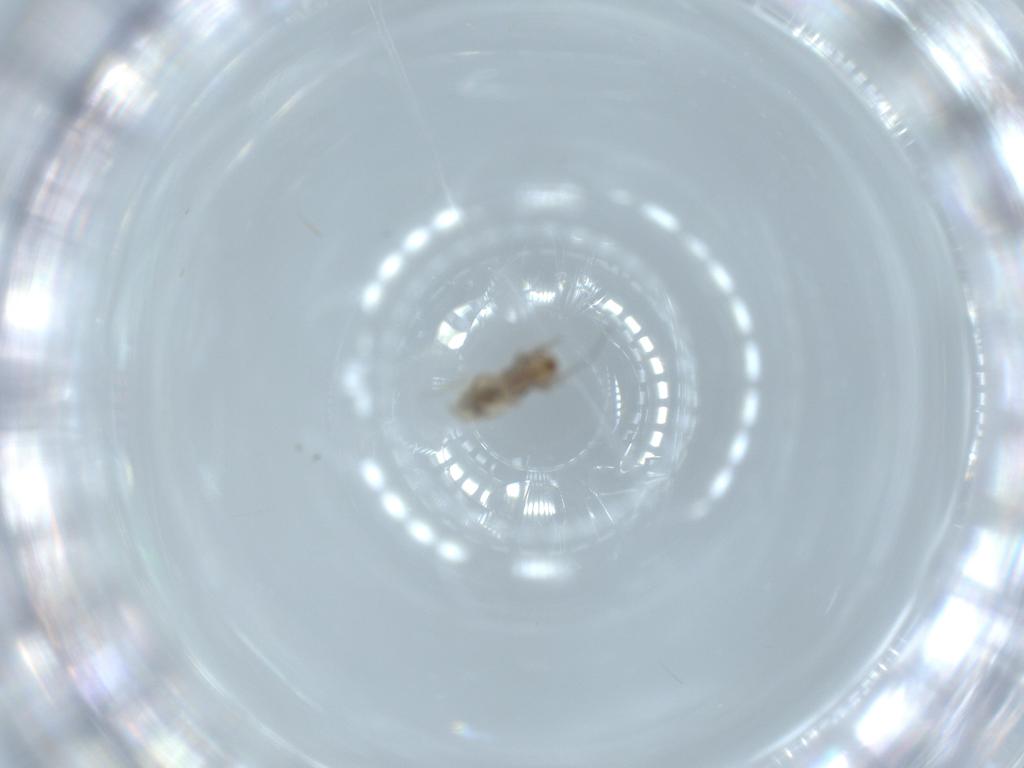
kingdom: Animalia
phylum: Arthropoda
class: Insecta
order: Psocodea
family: Lepidopsocidae
